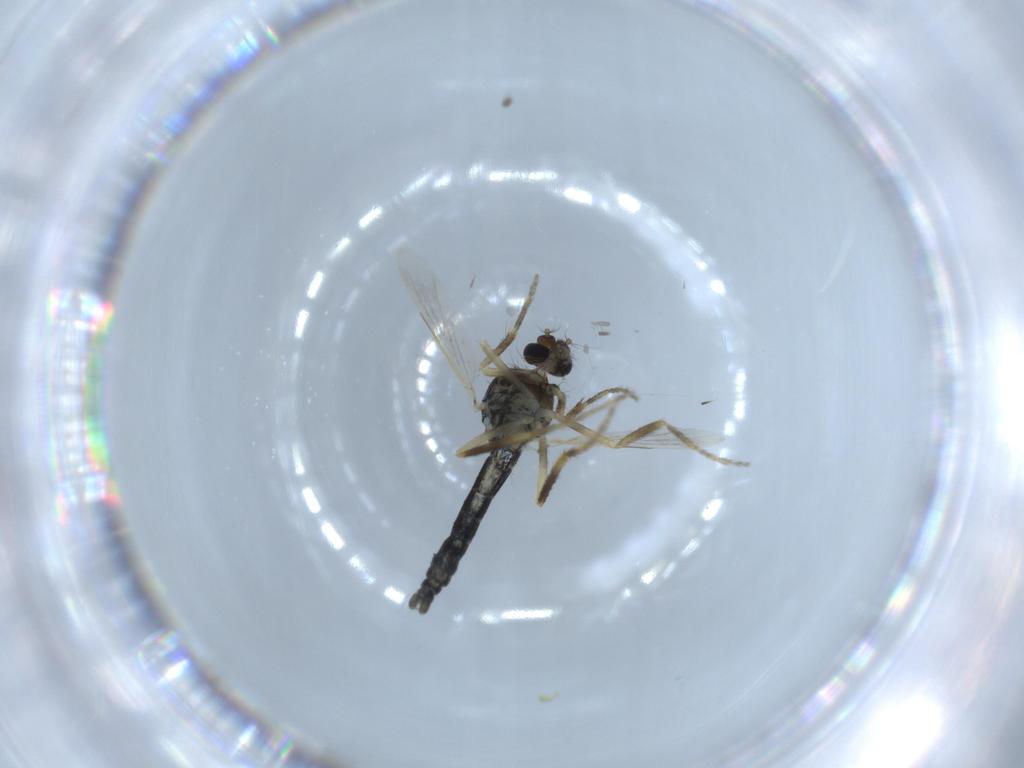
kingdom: Animalia
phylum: Arthropoda
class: Insecta
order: Diptera
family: Ceratopogonidae
